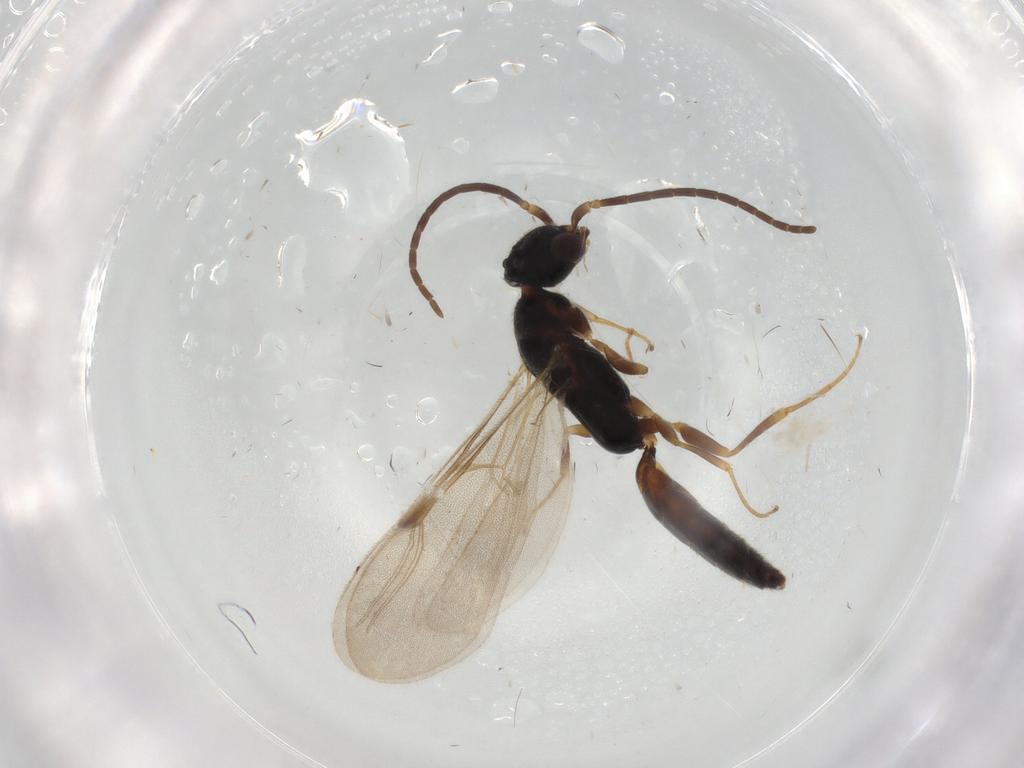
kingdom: Animalia
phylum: Arthropoda
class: Insecta
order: Hymenoptera
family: Bethylidae
